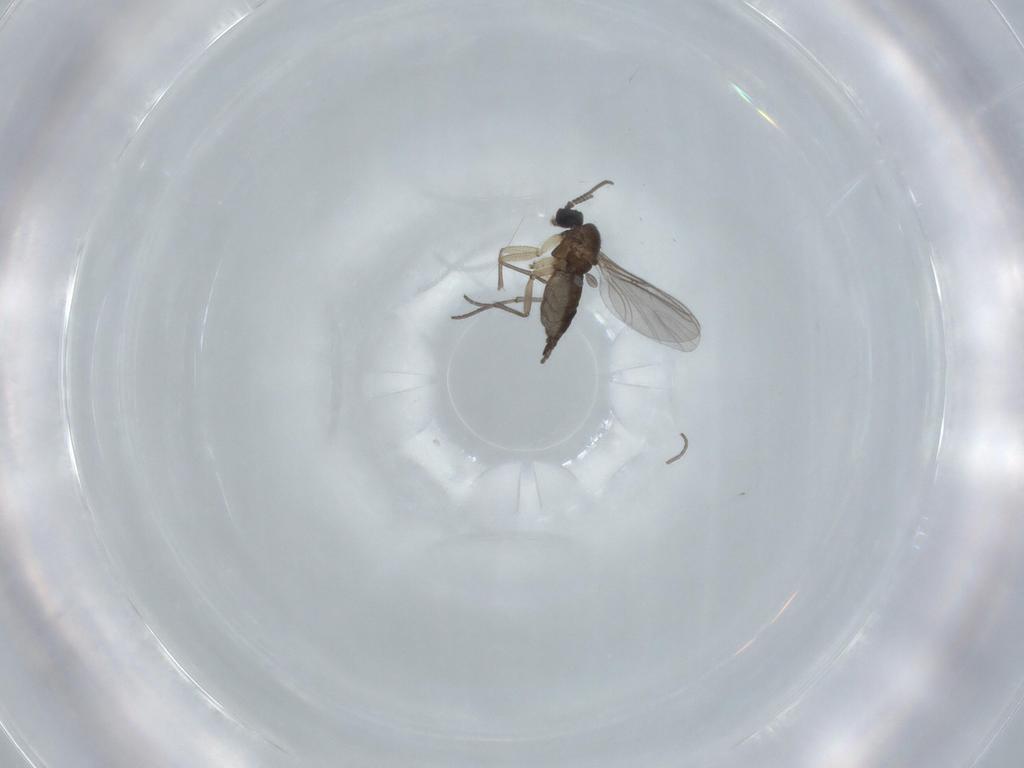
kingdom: Animalia
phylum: Arthropoda
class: Insecta
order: Diptera
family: Sciaridae
